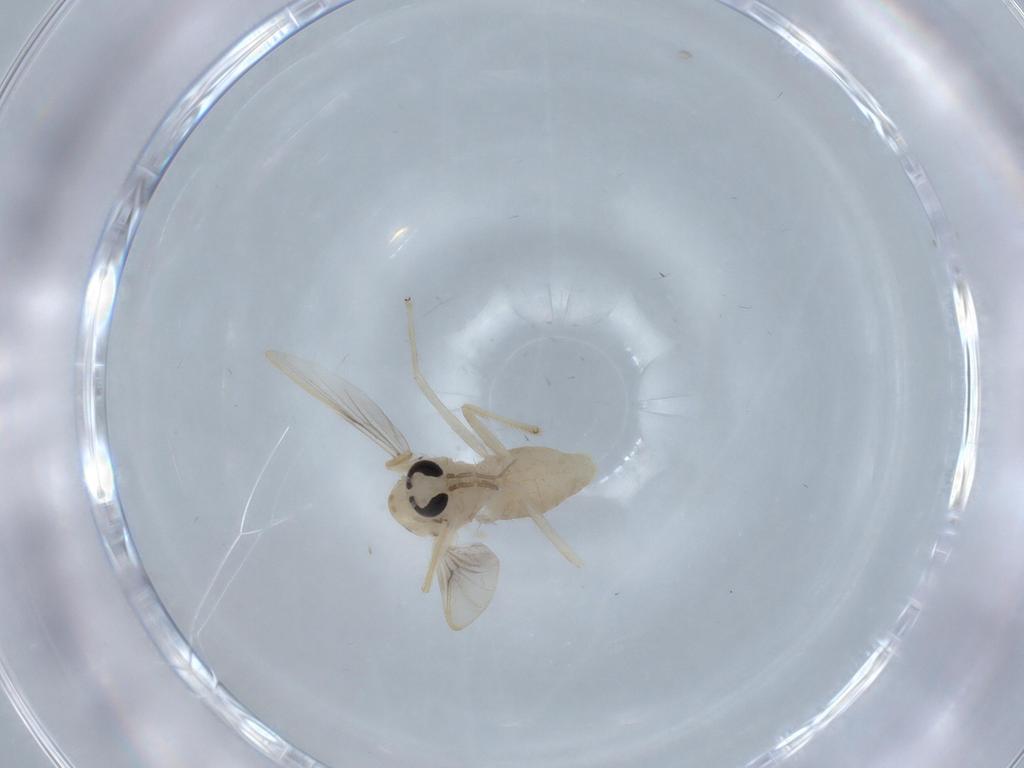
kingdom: Animalia
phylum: Arthropoda
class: Insecta
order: Diptera
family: Chironomidae
